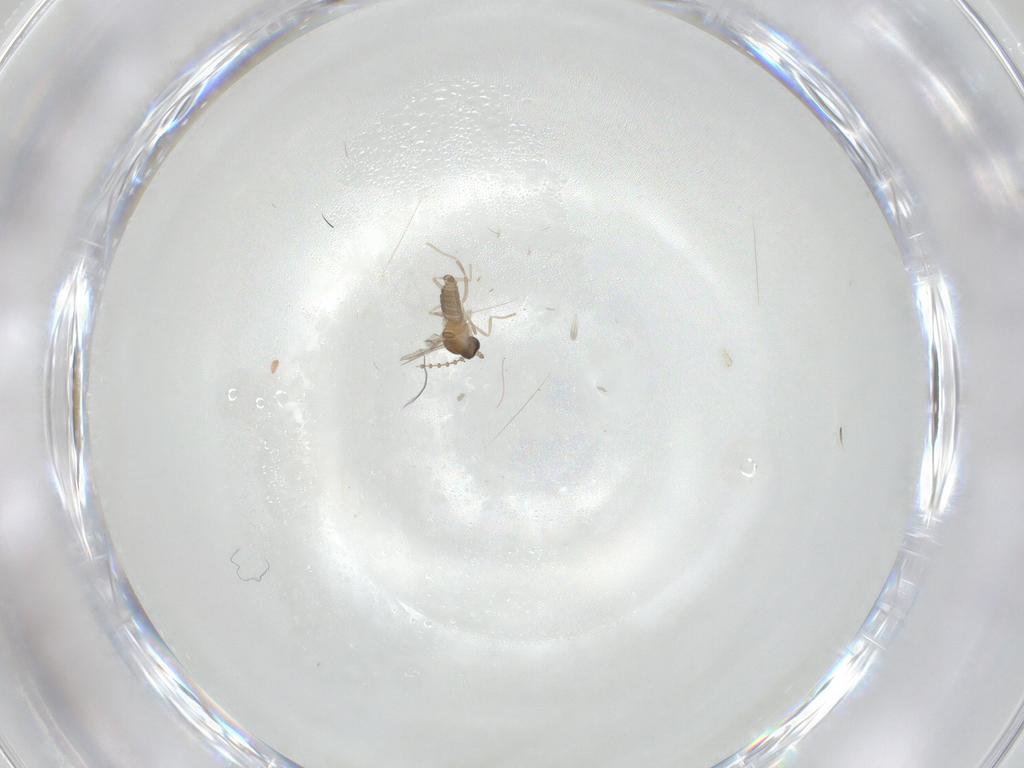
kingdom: Animalia
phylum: Arthropoda
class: Insecta
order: Diptera
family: Cecidomyiidae
